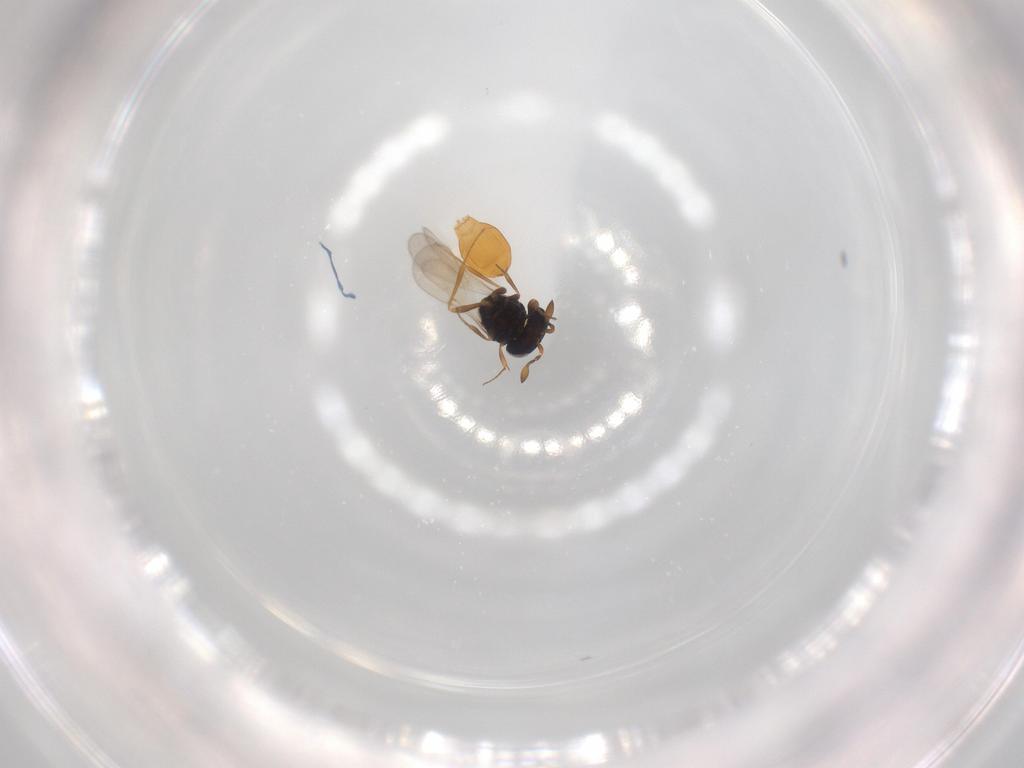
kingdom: Animalia
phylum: Arthropoda
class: Insecta
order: Hymenoptera
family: Scelionidae
